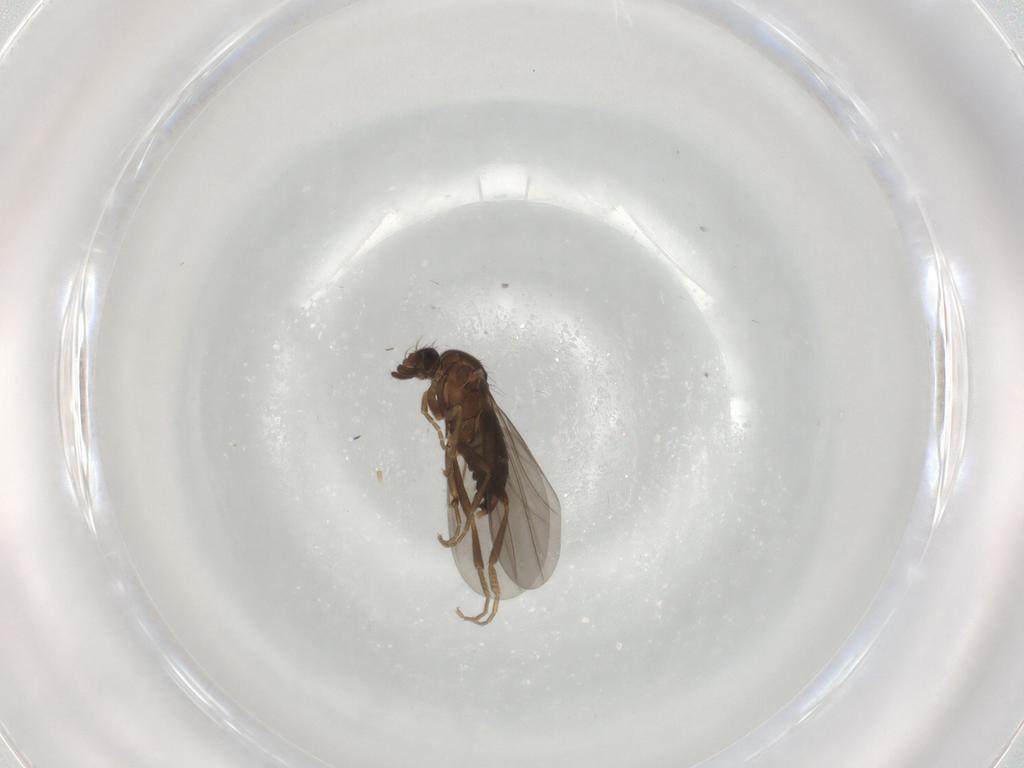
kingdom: Animalia
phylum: Arthropoda
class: Insecta
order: Diptera
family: Phoridae
